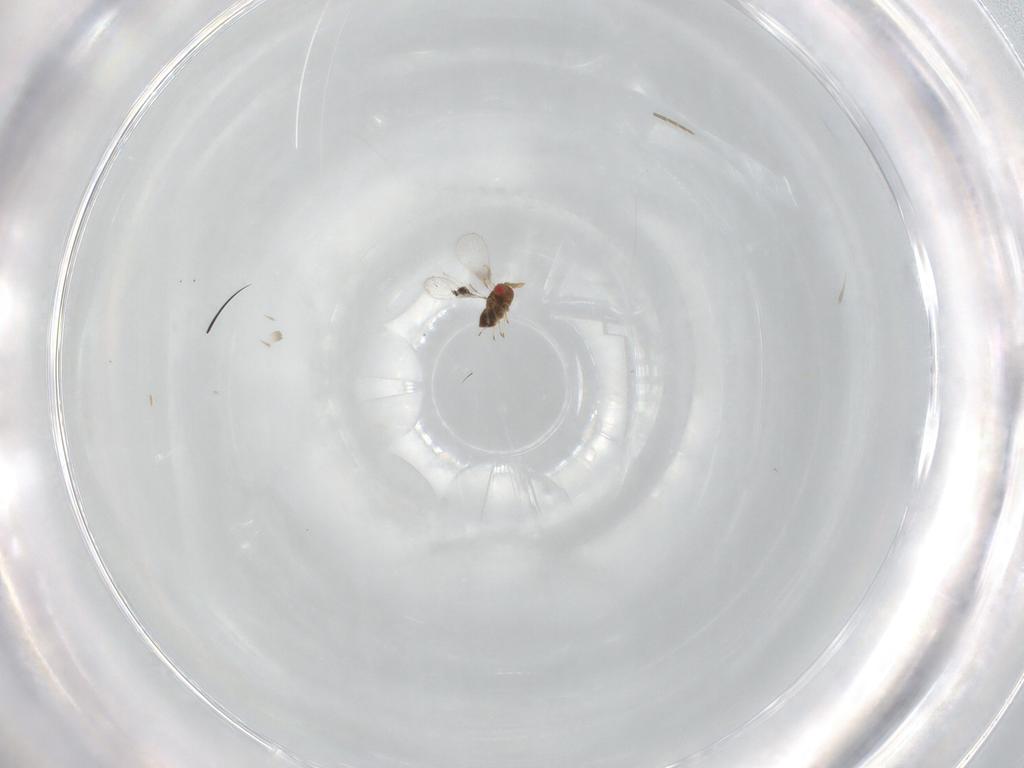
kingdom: Animalia
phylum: Arthropoda
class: Insecta
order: Hymenoptera
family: Trichogrammatidae
